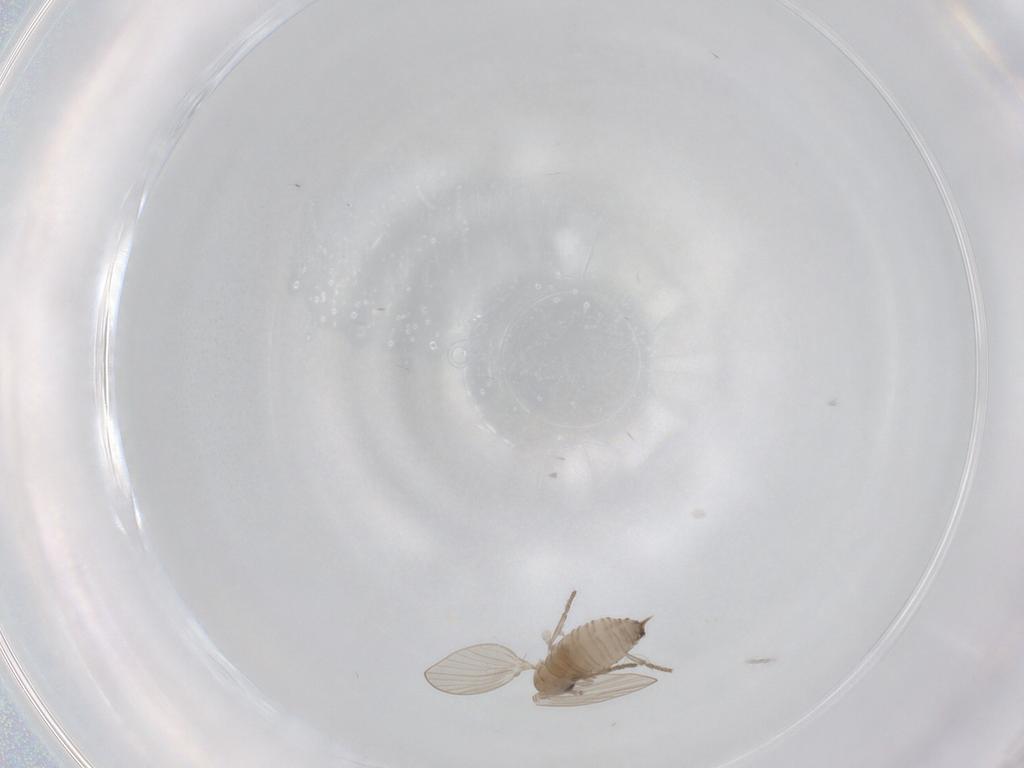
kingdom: Animalia
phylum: Arthropoda
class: Insecta
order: Diptera
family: Psychodidae
